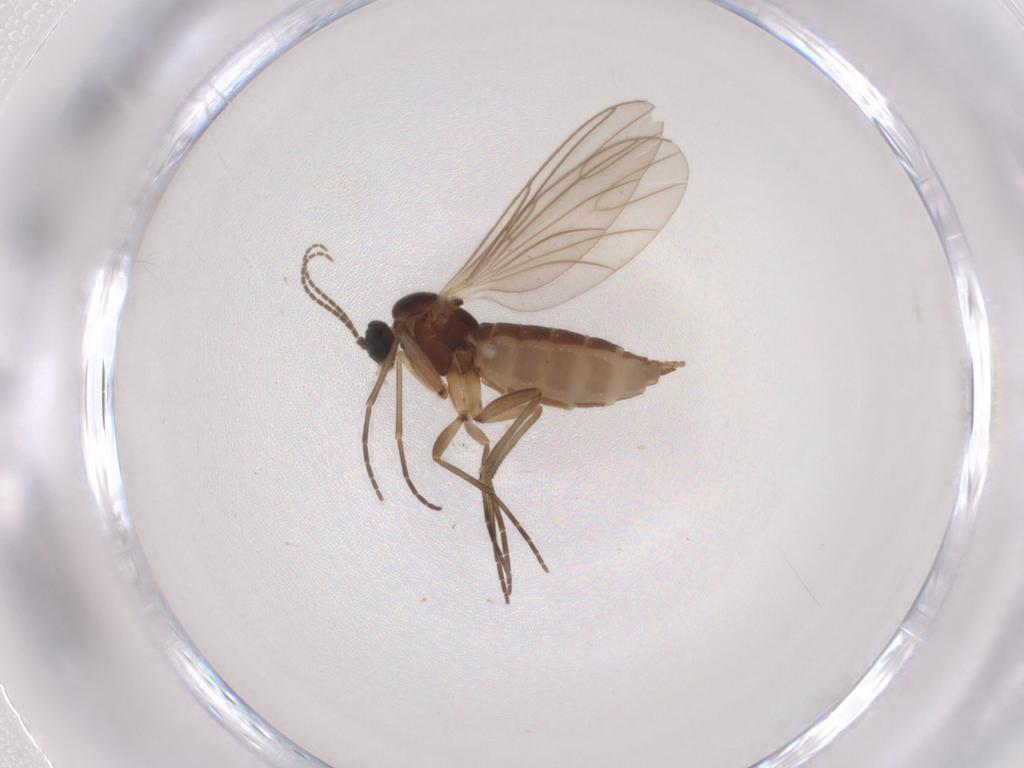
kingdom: Animalia
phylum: Arthropoda
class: Insecta
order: Diptera
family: Sciaridae
